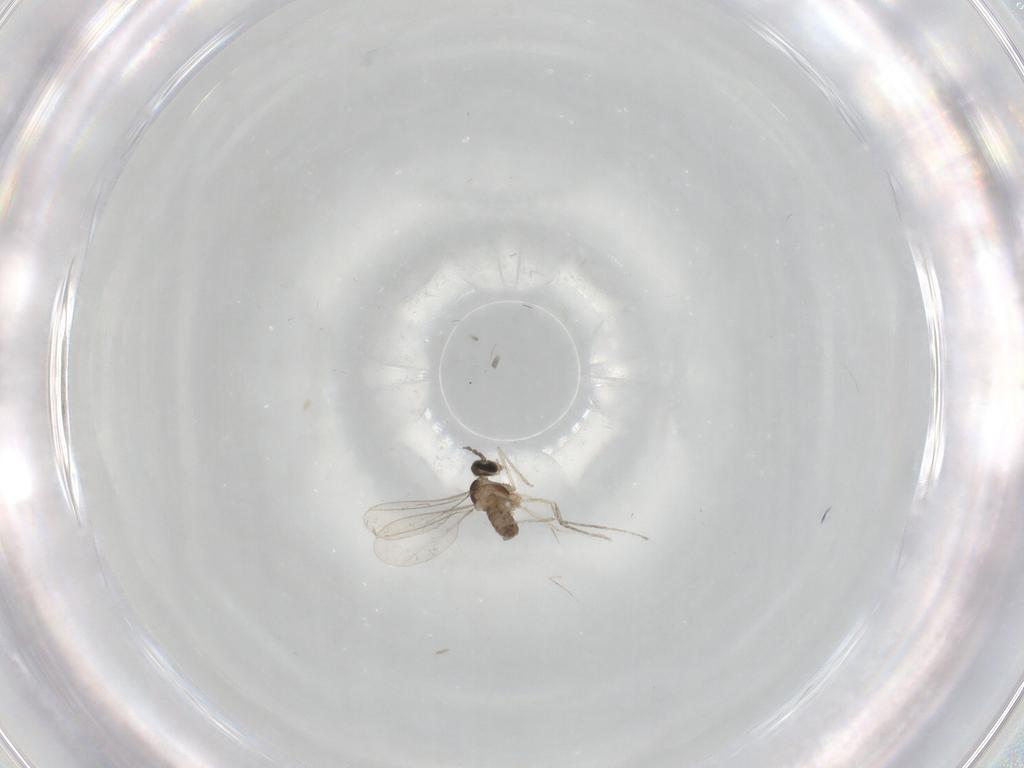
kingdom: Animalia
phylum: Arthropoda
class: Insecta
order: Diptera
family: Cecidomyiidae
